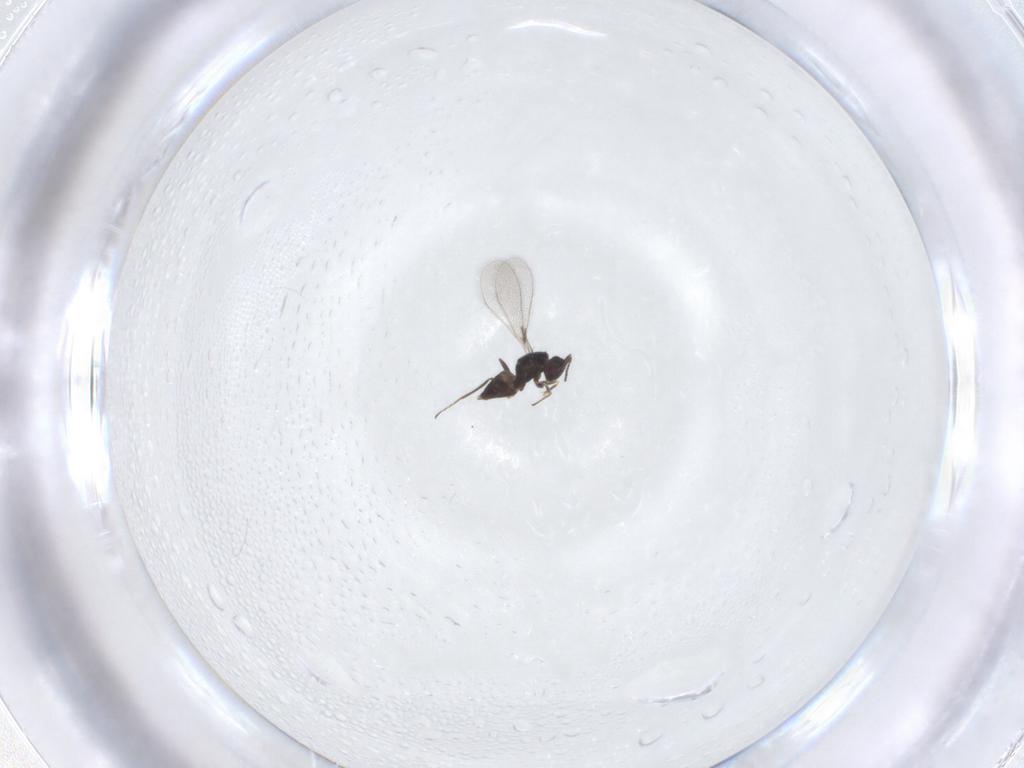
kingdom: Animalia
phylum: Arthropoda
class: Insecta
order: Hymenoptera
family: Mymaridae
